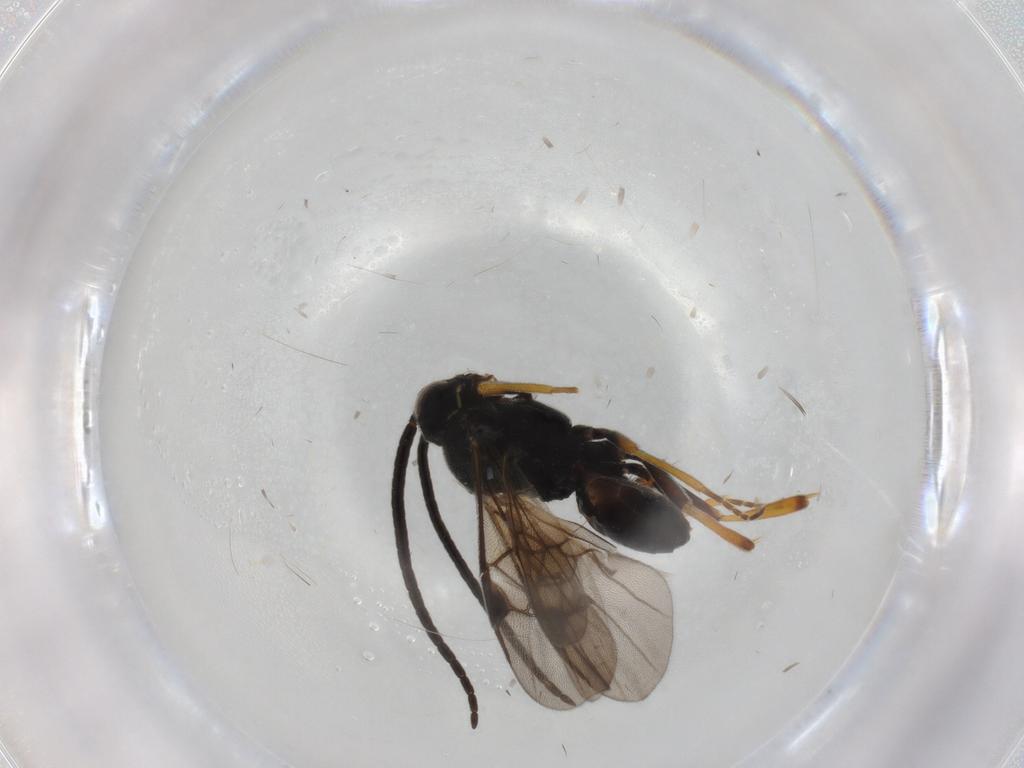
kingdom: Animalia
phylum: Arthropoda
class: Insecta
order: Hymenoptera
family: Braconidae
